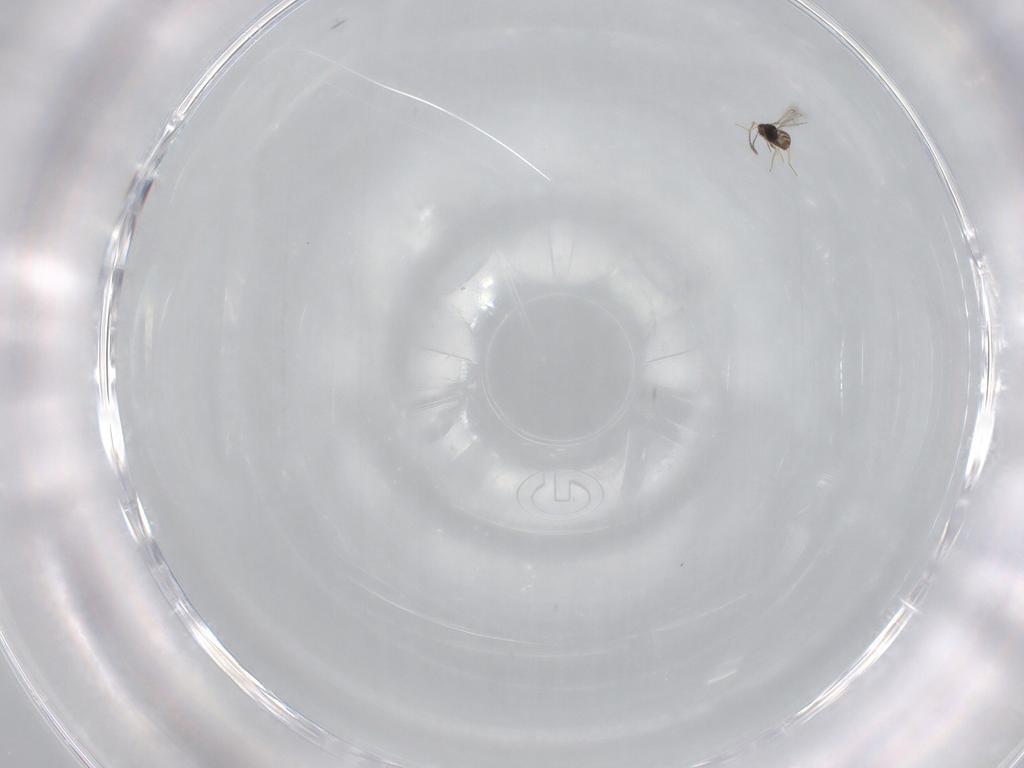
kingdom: Animalia
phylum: Arthropoda
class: Insecta
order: Hymenoptera
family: Mymaridae
